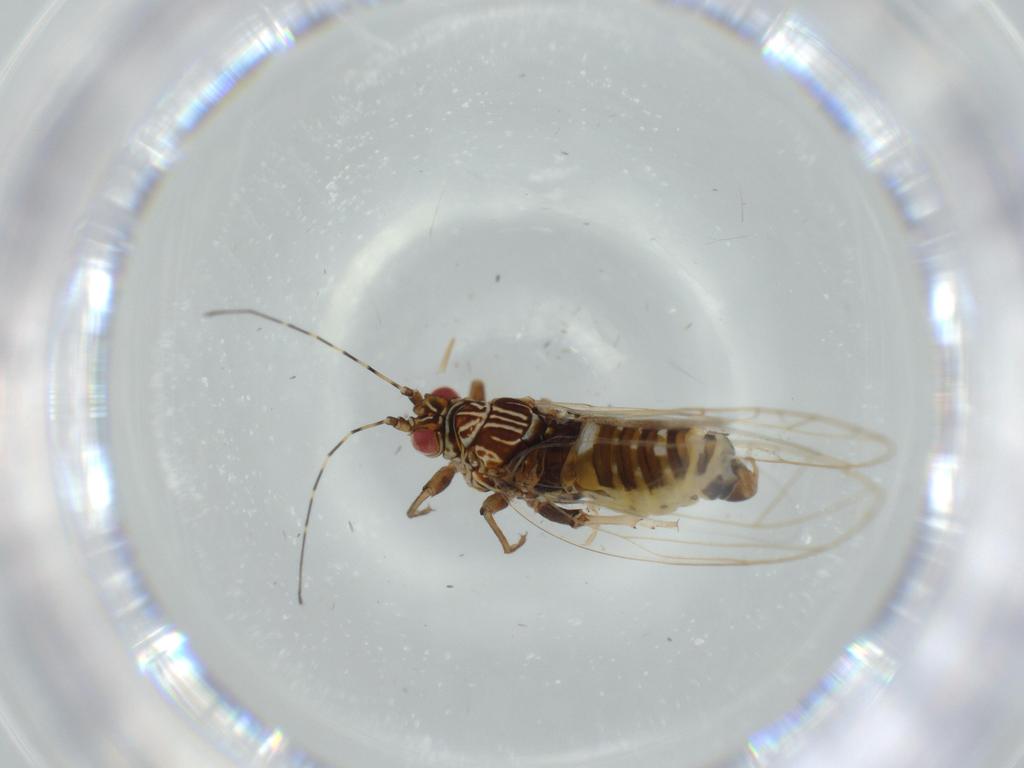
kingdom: Animalia
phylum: Arthropoda
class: Insecta
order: Hemiptera
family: Carsidaridae
